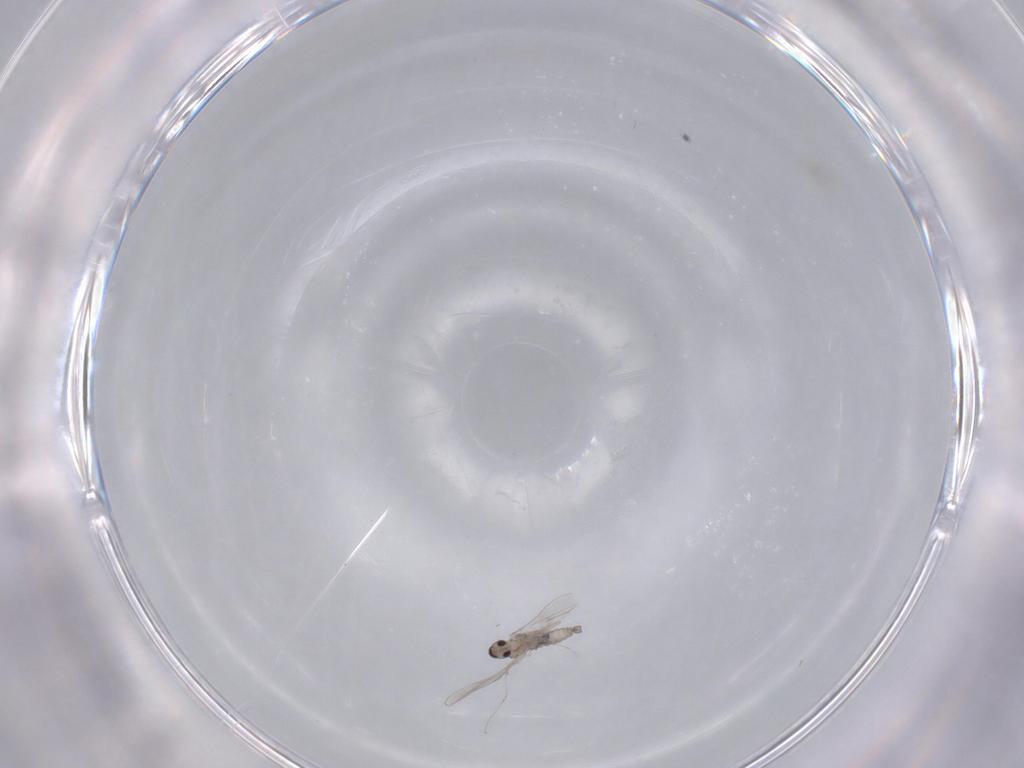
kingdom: Animalia
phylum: Arthropoda
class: Insecta
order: Diptera
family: Cecidomyiidae
